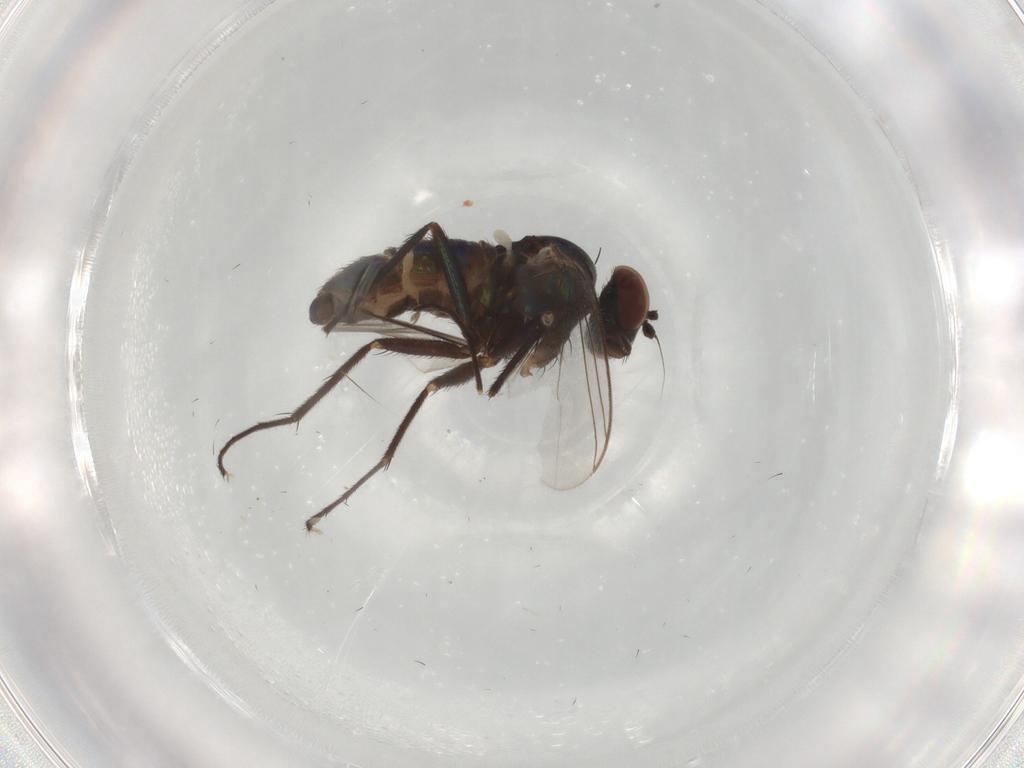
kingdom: Animalia
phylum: Arthropoda
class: Insecta
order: Diptera
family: Dolichopodidae
